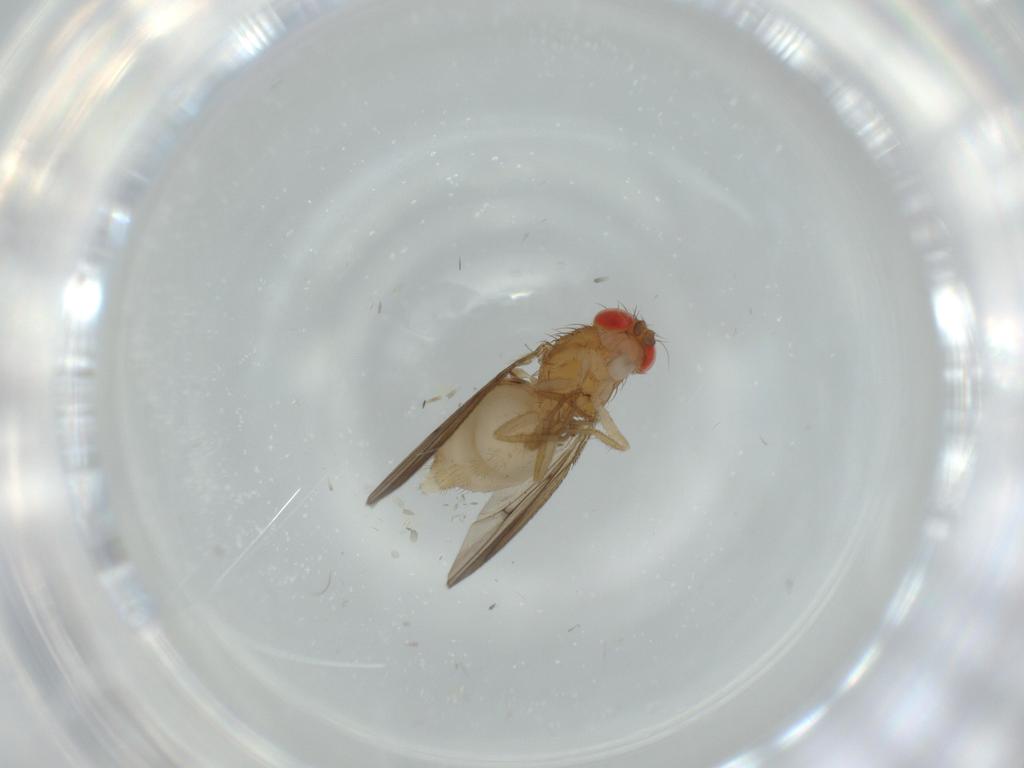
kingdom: Animalia
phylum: Arthropoda
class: Insecta
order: Diptera
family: Drosophilidae
